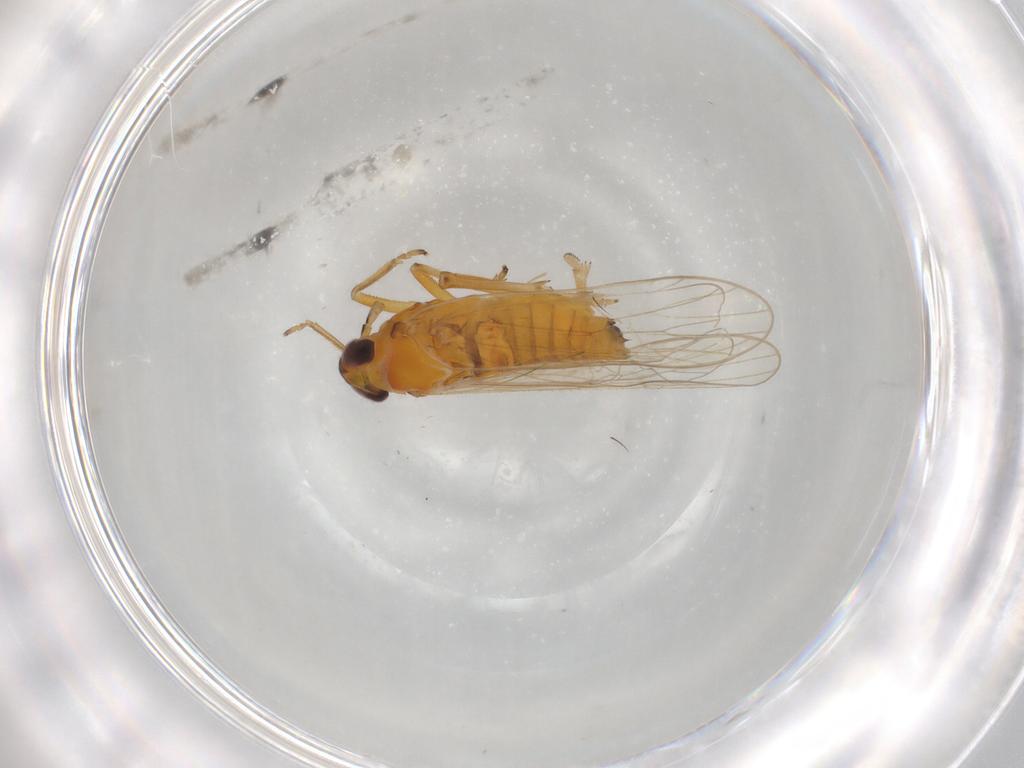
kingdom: Animalia
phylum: Arthropoda
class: Insecta
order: Hemiptera
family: Delphacidae
